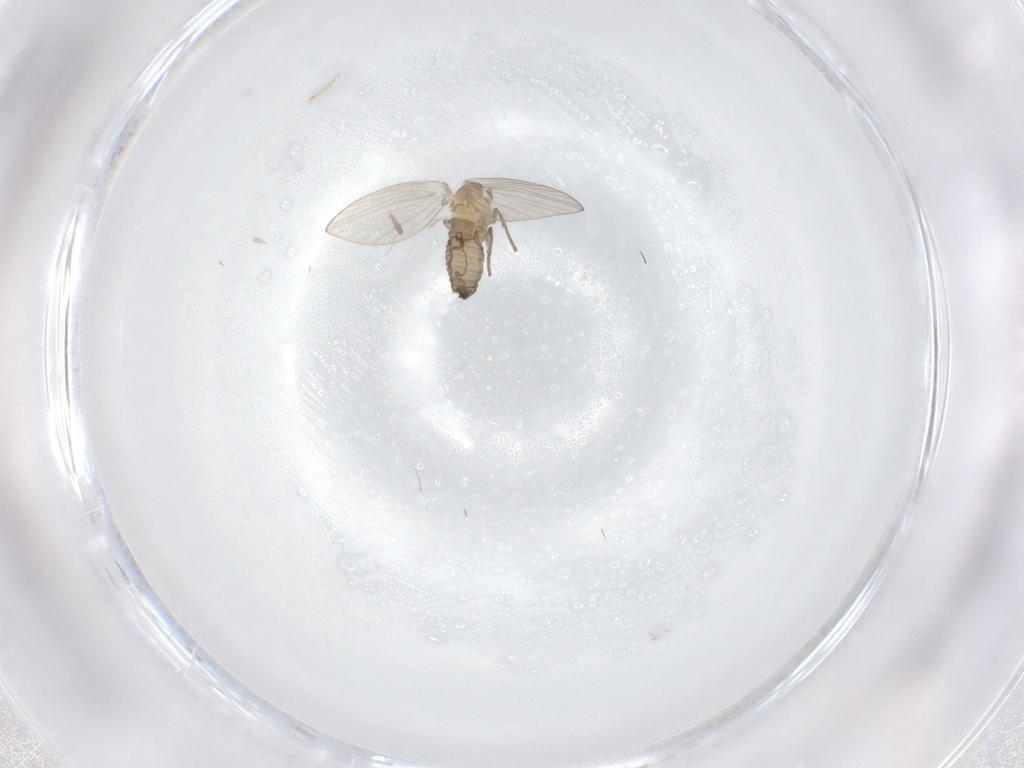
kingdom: Animalia
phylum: Arthropoda
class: Insecta
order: Diptera
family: Psychodidae
